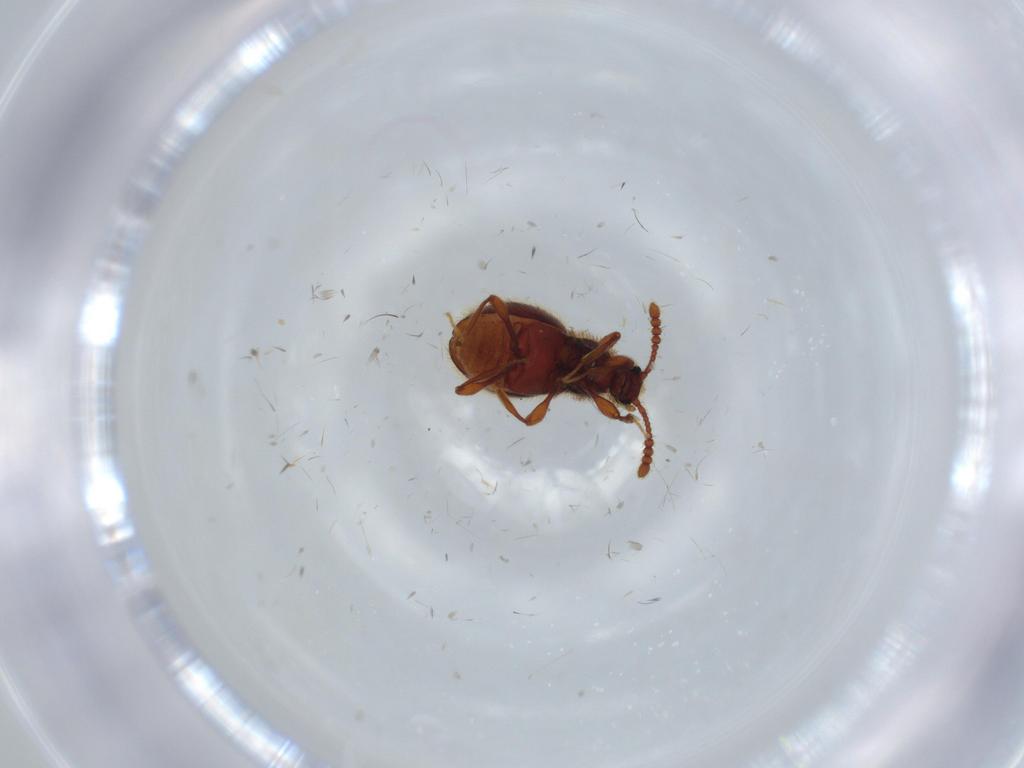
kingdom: Animalia
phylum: Arthropoda
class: Insecta
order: Coleoptera
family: Staphylinidae
